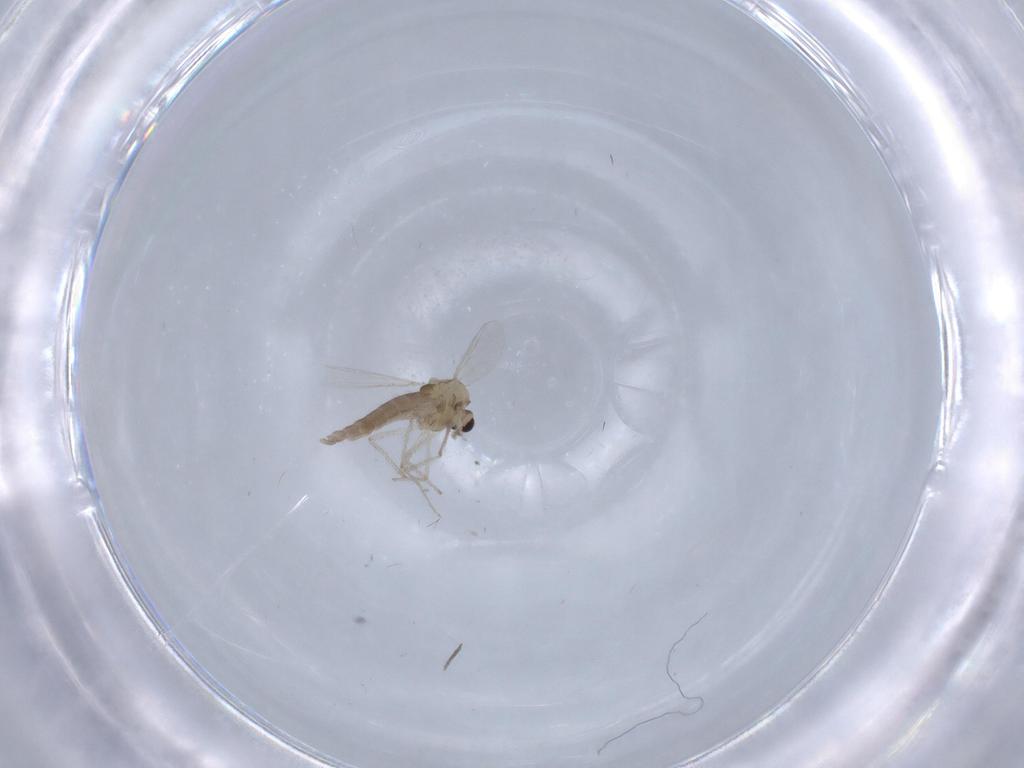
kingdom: Animalia
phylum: Arthropoda
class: Insecta
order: Diptera
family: Chironomidae
